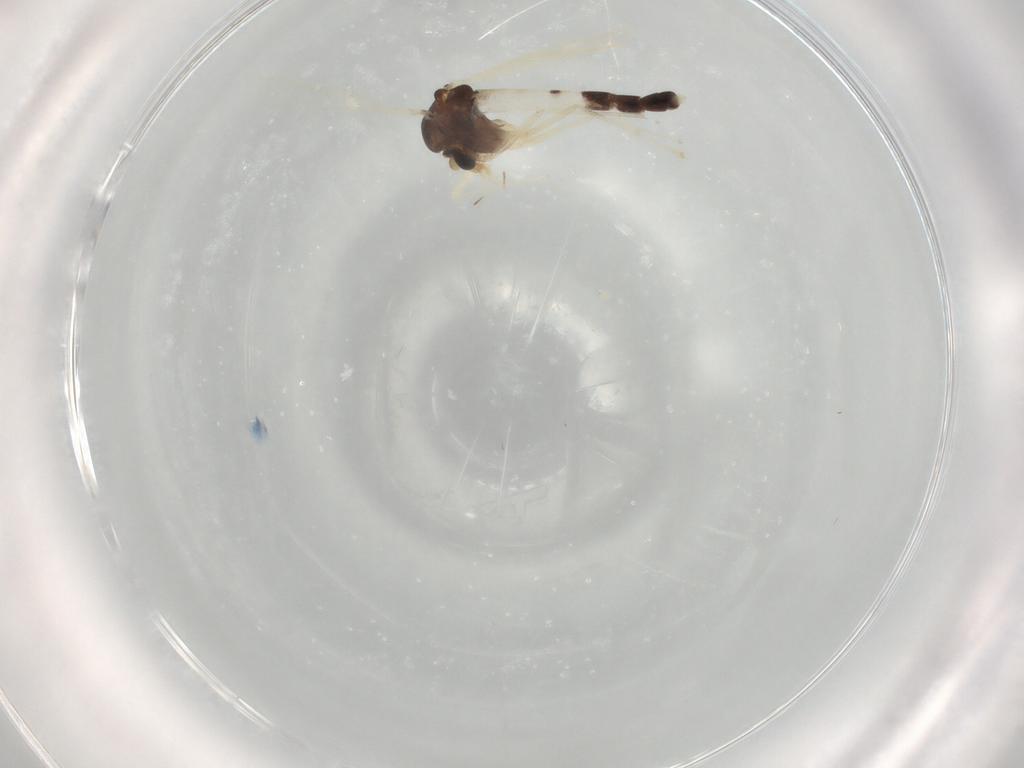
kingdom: Animalia
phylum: Arthropoda
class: Insecta
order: Diptera
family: Chironomidae
